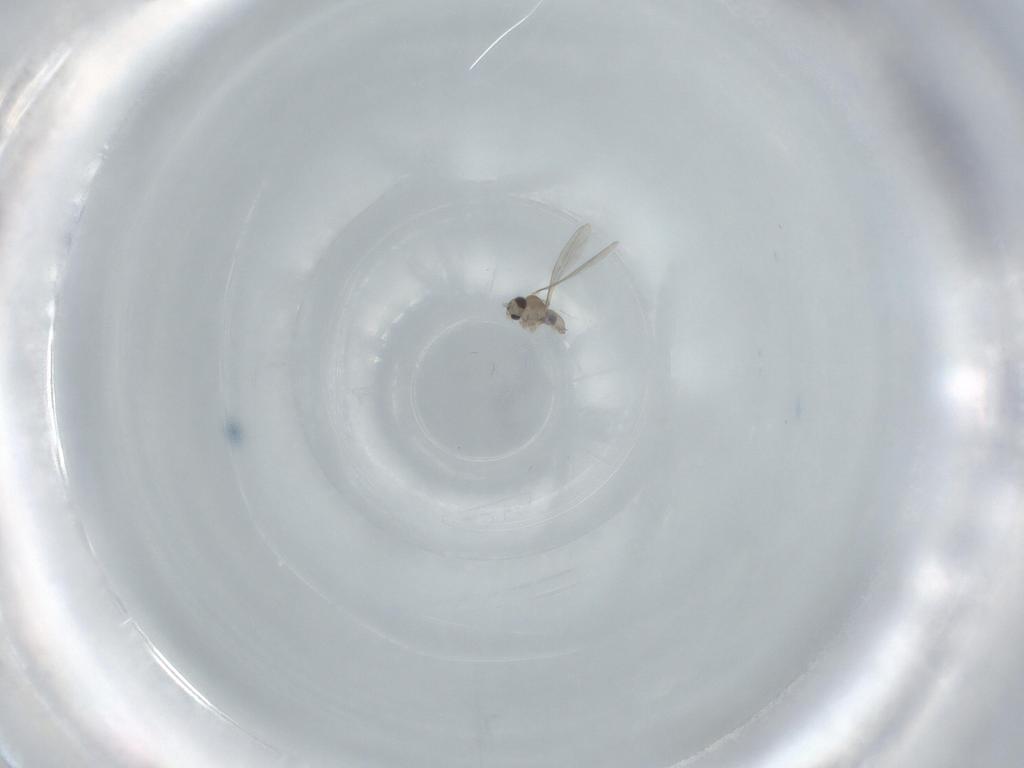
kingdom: Animalia
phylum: Arthropoda
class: Insecta
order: Diptera
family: Cecidomyiidae
